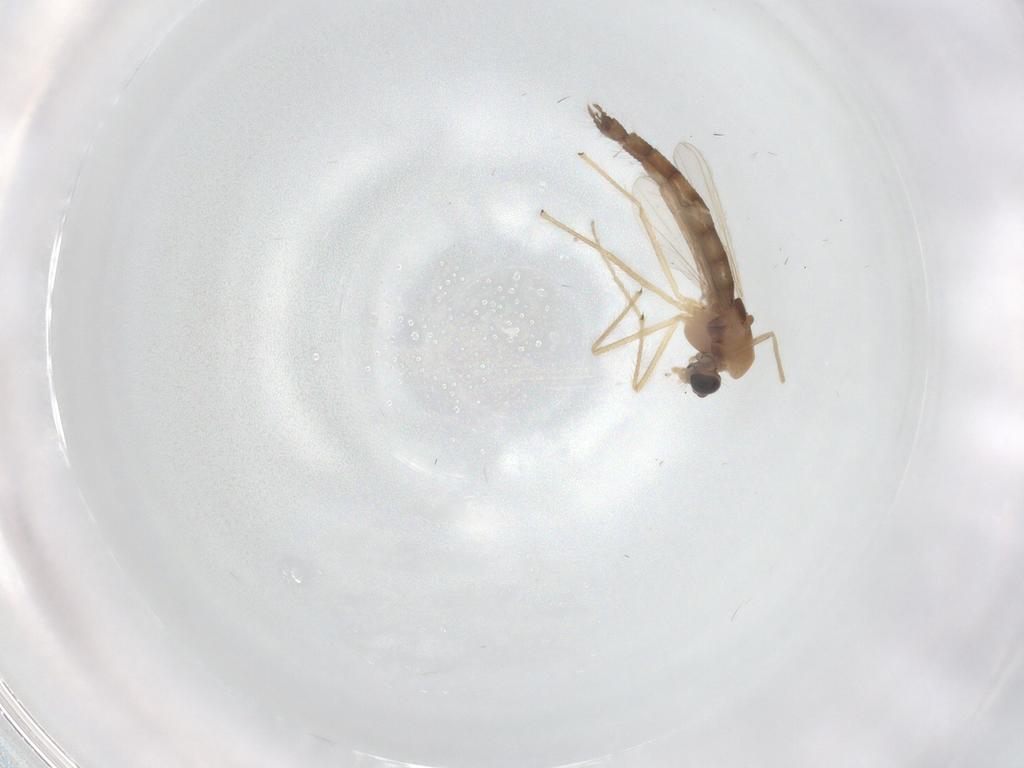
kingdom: Animalia
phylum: Arthropoda
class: Insecta
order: Diptera
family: Chironomidae
